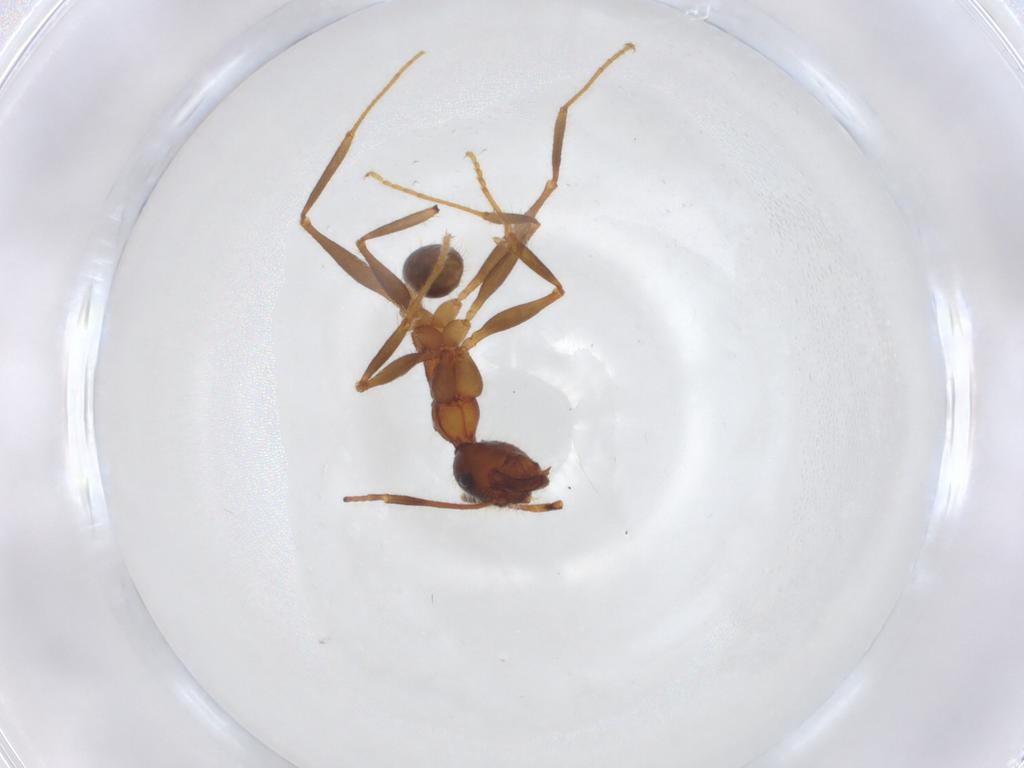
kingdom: Animalia
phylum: Arthropoda
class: Insecta
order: Hymenoptera
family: Formicidae
